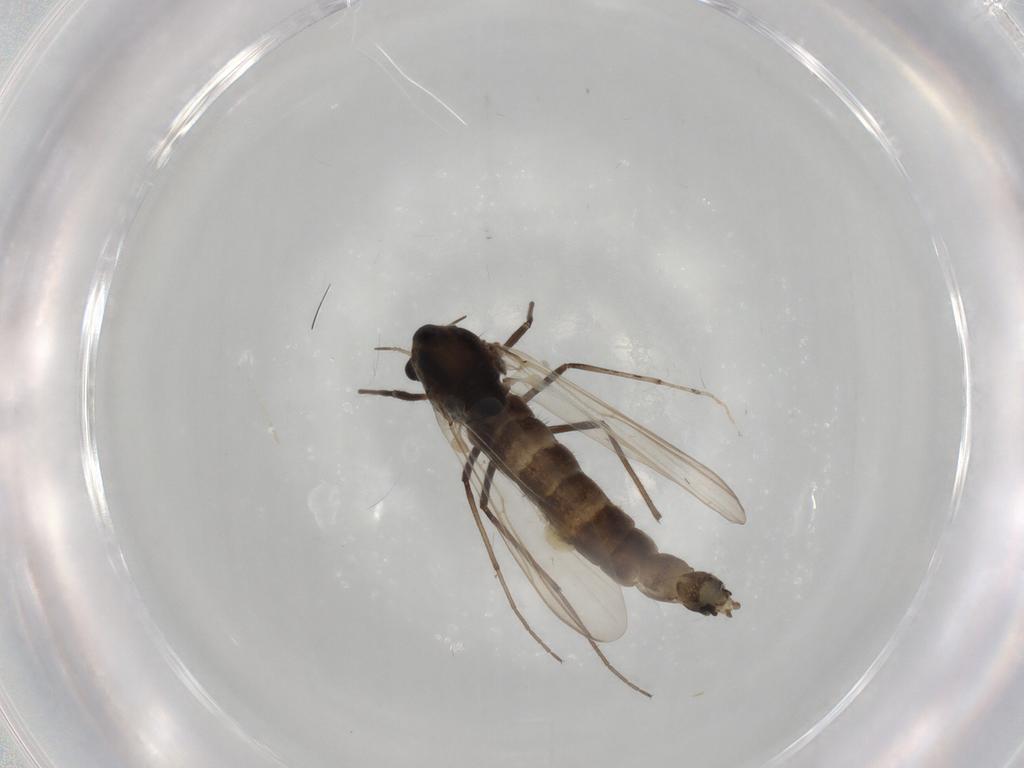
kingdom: Animalia
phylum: Arthropoda
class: Insecta
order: Diptera
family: Chironomidae
